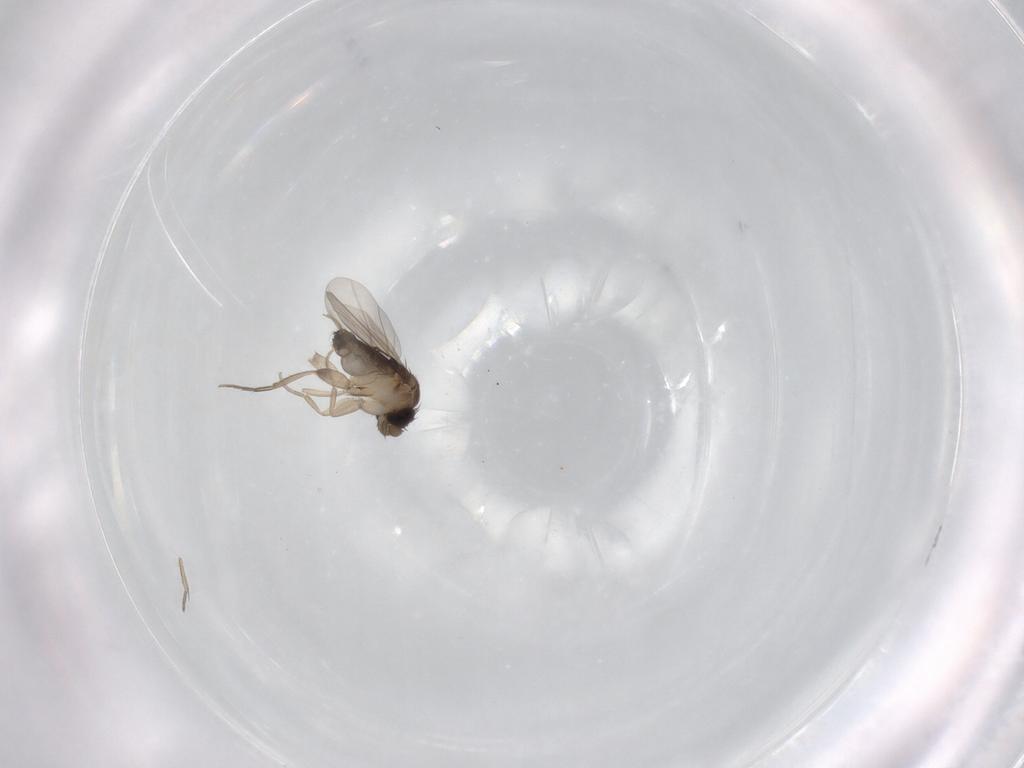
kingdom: Animalia
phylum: Arthropoda
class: Insecta
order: Diptera
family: Phoridae
